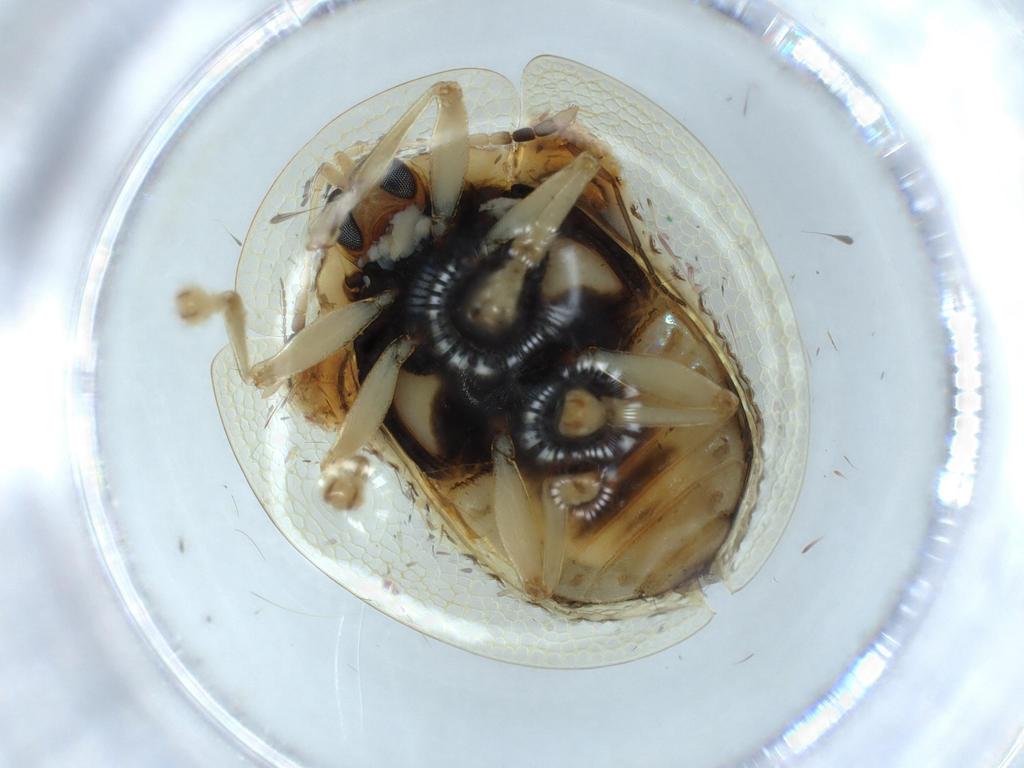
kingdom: Animalia
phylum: Arthropoda
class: Insecta
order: Coleoptera
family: Chrysomelidae
